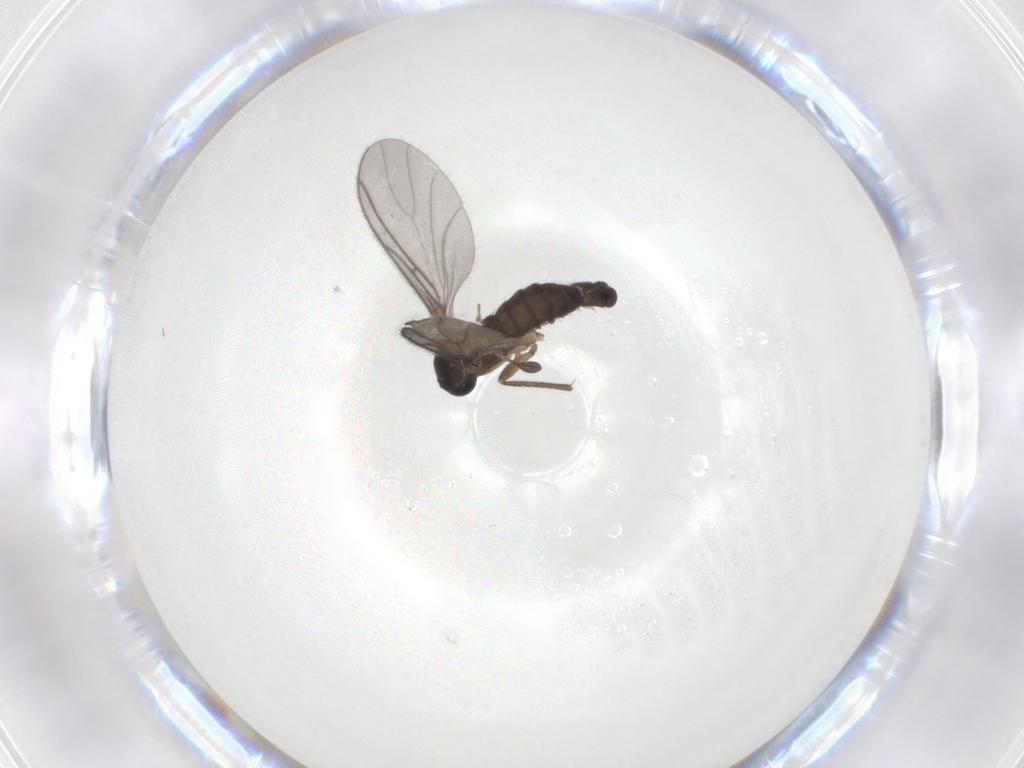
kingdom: Animalia
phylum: Arthropoda
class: Insecta
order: Diptera
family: Sciaridae
